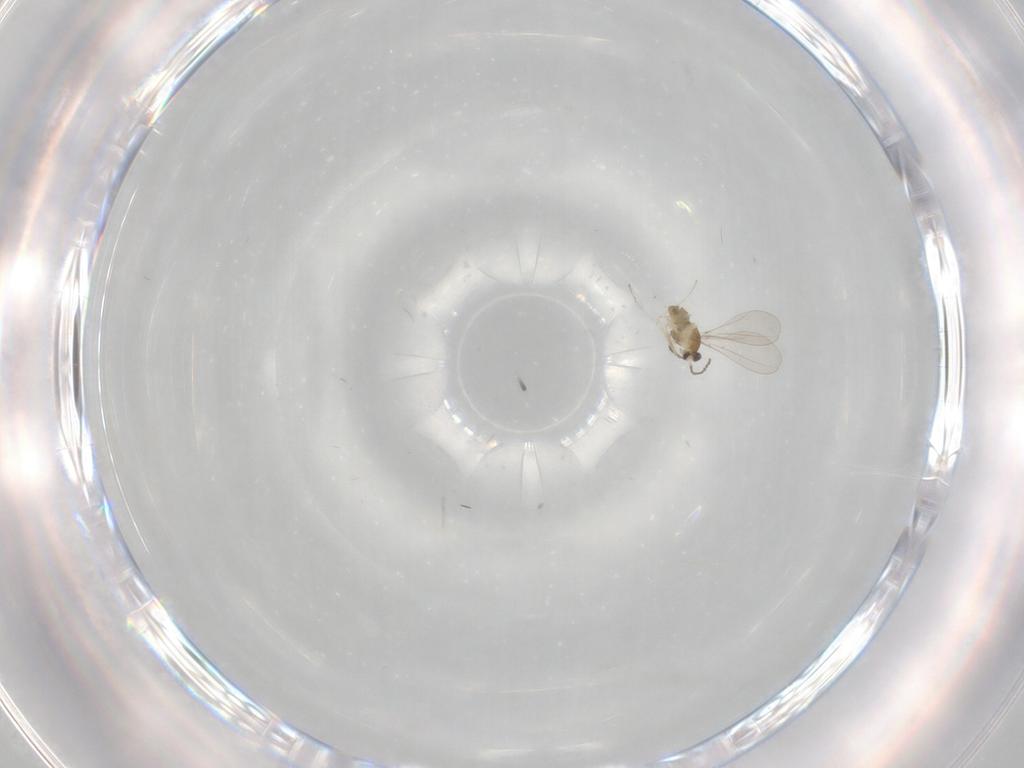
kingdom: Animalia
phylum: Arthropoda
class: Insecta
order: Diptera
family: Cecidomyiidae
